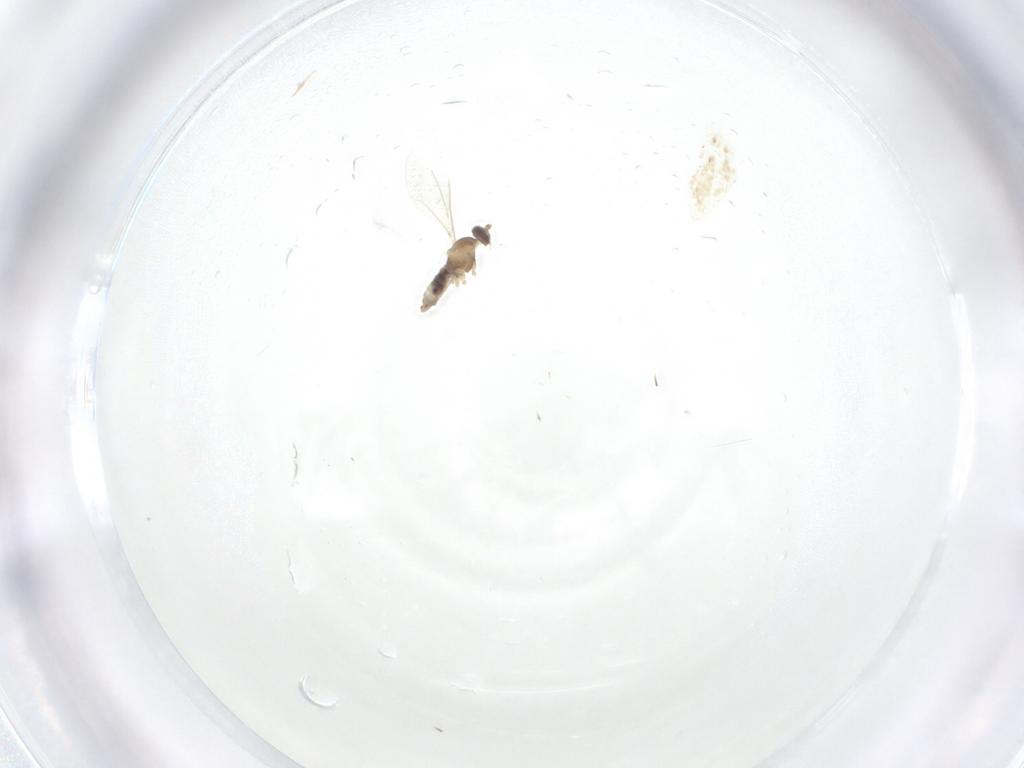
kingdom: Animalia
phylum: Arthropoda
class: Insecta
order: Diptera
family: Cecidomyiidae
